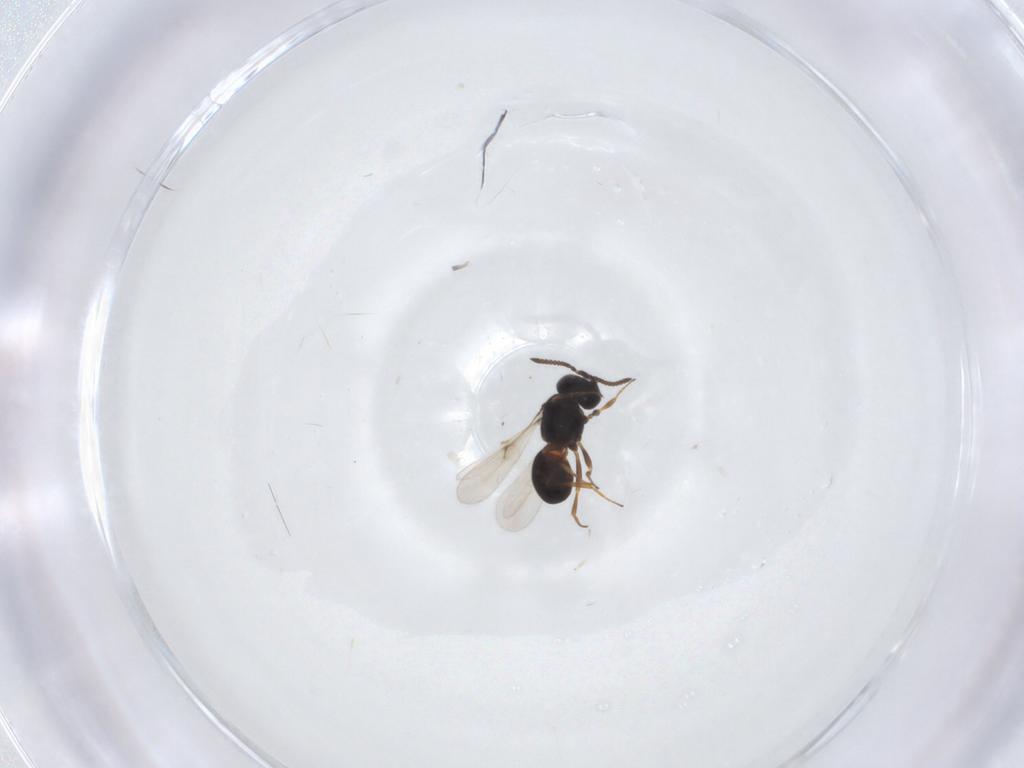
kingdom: Animalia
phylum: Arthropoda
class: Arachnida
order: Araneae
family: Pholcidae
